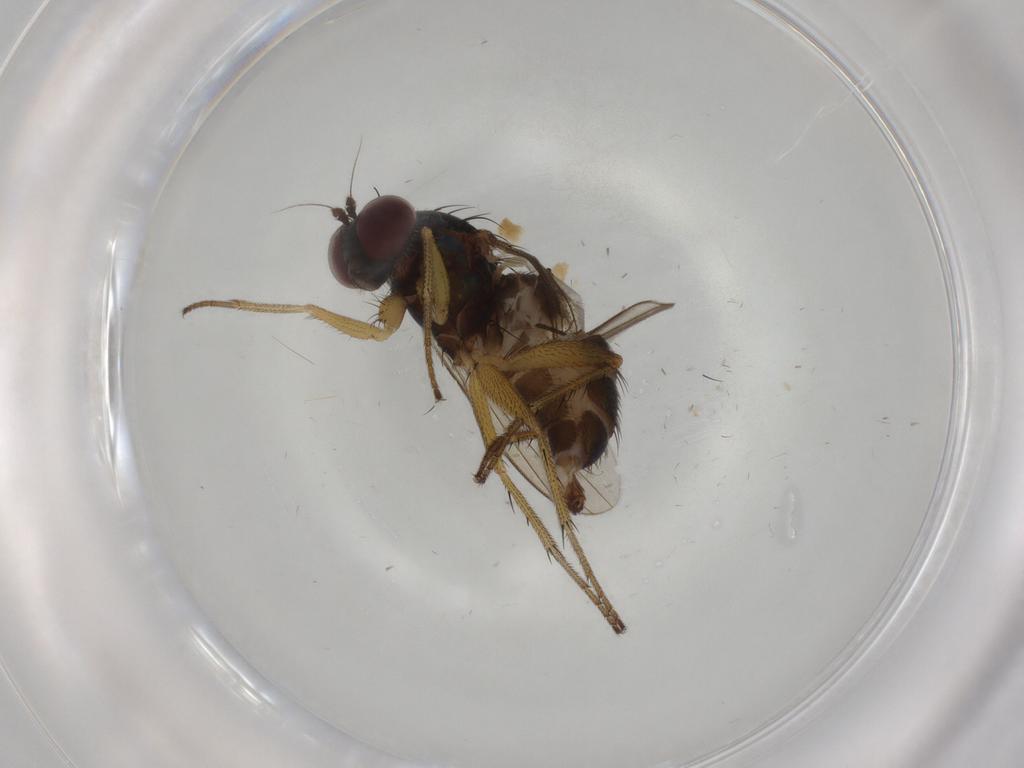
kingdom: Animalia
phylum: Arthropoda
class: Insecta
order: Diptera
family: Dolichopodidae
